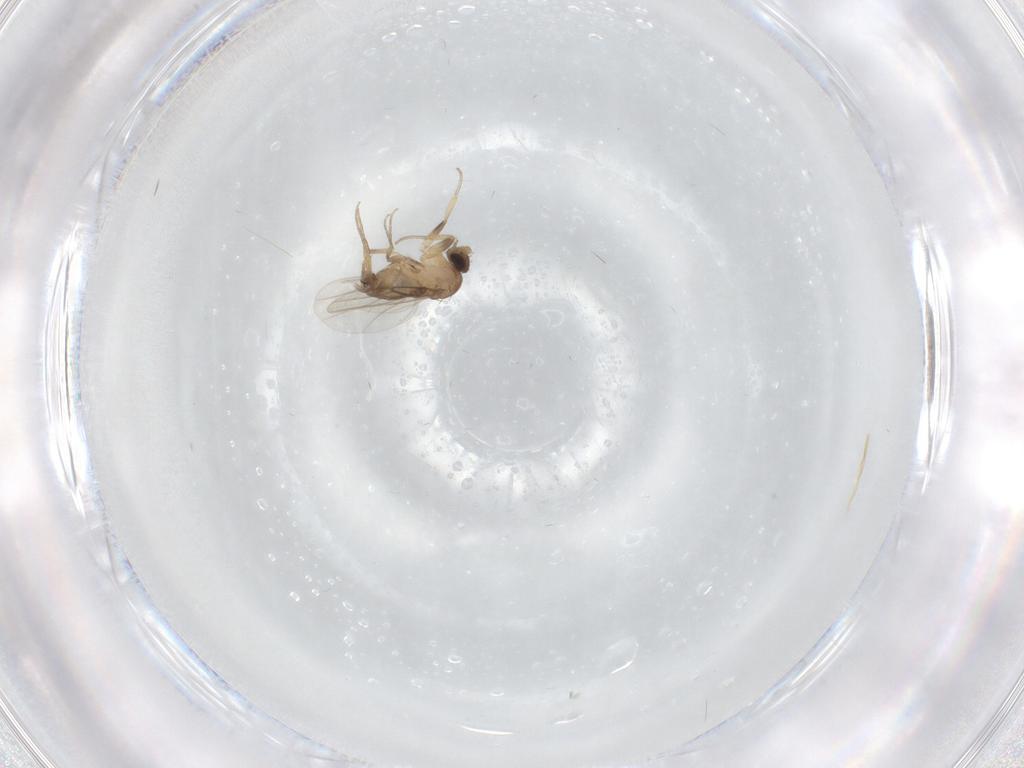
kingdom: Animalia
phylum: Arthropoda
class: Insecta
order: Diptera
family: Phoridae
